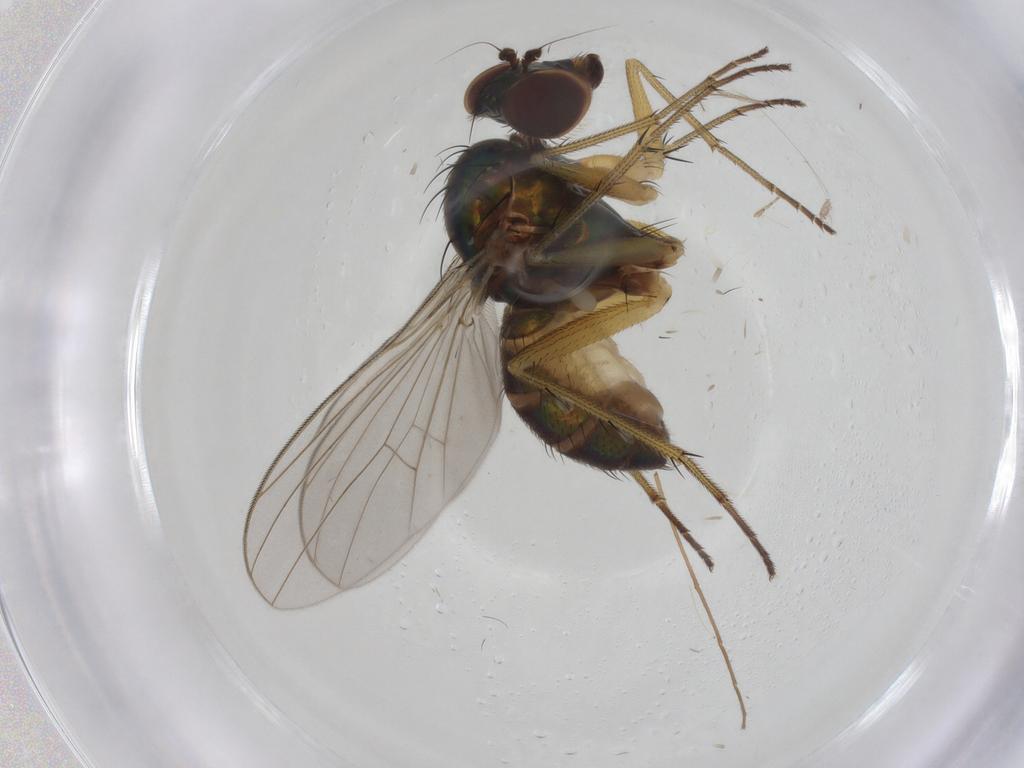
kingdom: Animalia
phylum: Arthropoda
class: Insecta
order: Diptera
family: Dolichopodidae
